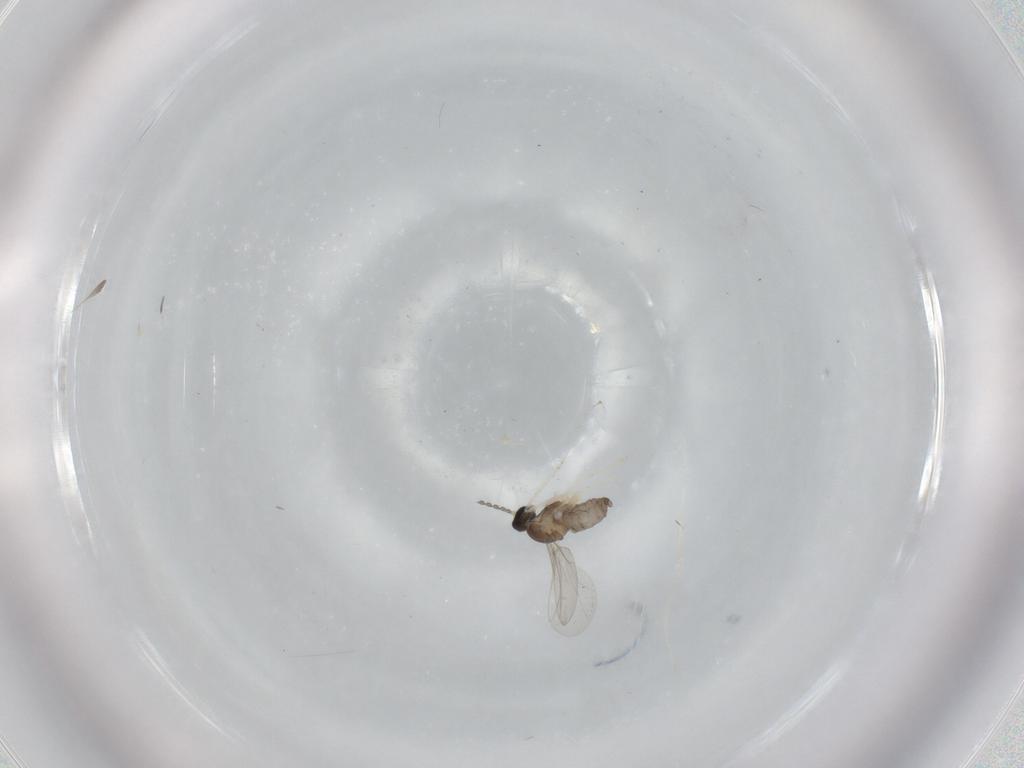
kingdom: Animalia
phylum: Arthropoda
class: Insecta
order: Diptera
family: Cecidomyiidae
